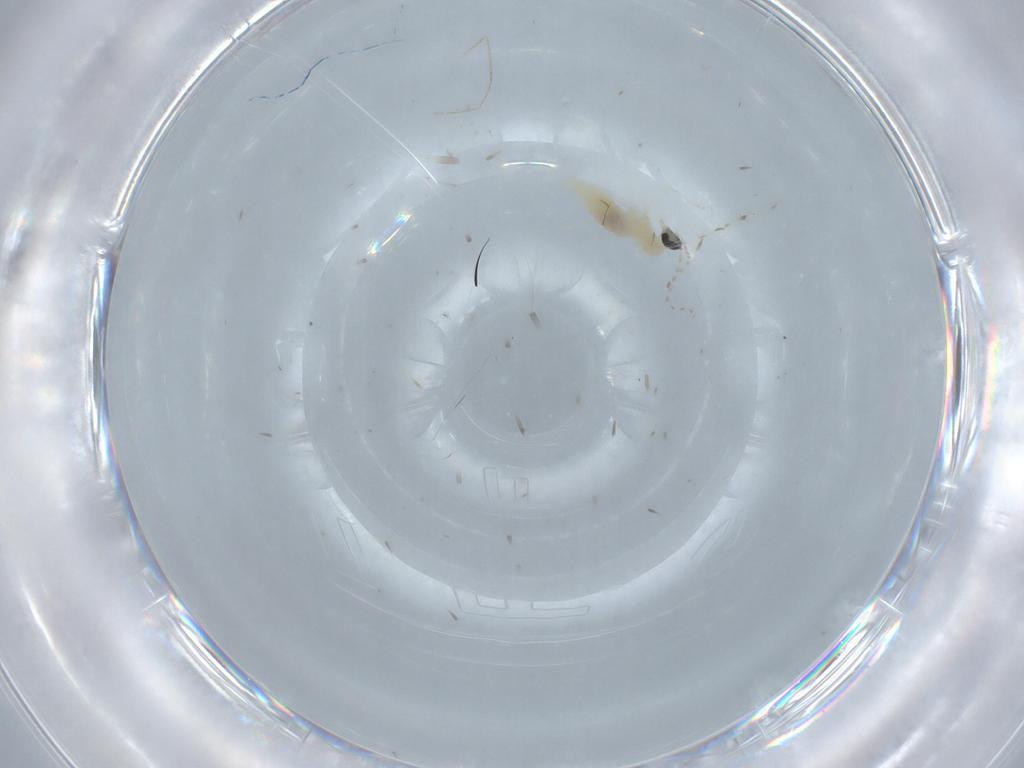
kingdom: Animalia
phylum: Arthropoda
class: Insecta
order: Diptera
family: Cecidomyiidae
